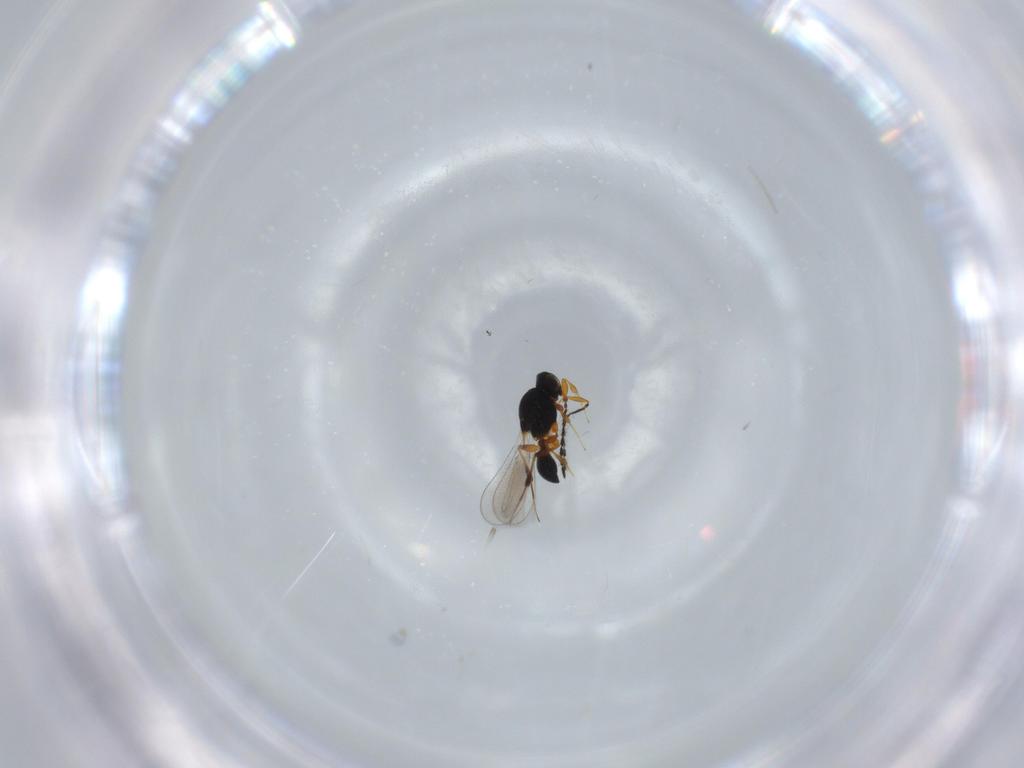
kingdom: Animalia
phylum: Arthropoda
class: Insecta
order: Hymenoptera
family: Platygastridae
